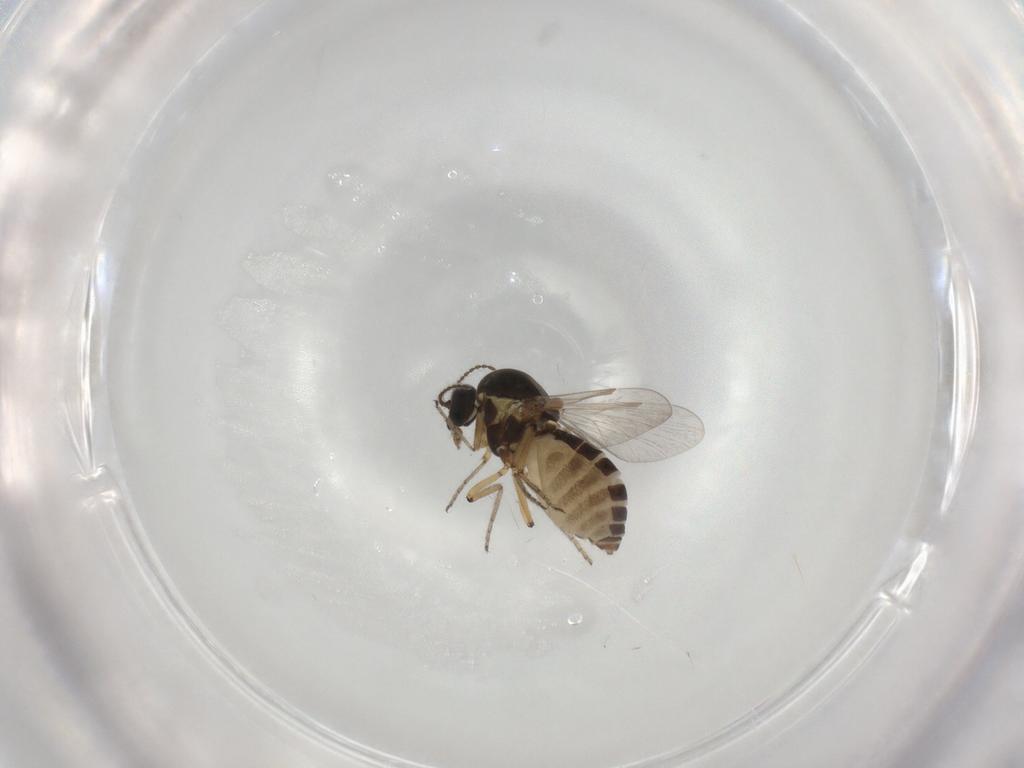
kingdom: Animalia
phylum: Arthropoda
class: Insecta
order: Diptera
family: Ceratopogonidae
